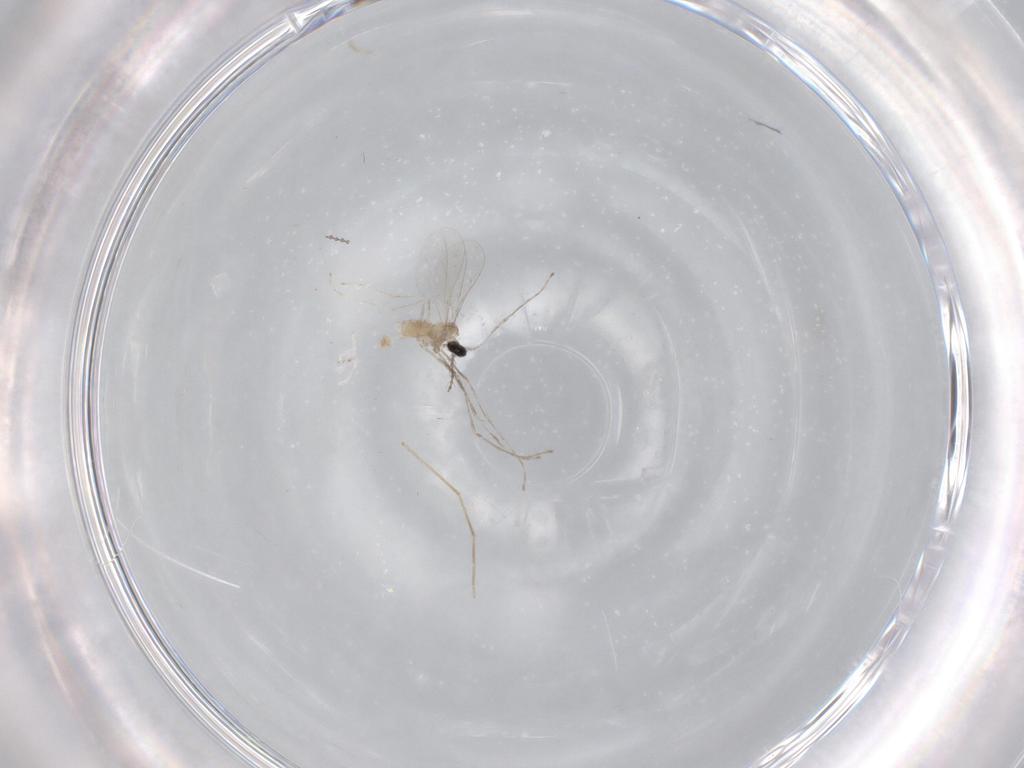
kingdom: Animalia
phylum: Arthropoda
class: Insecta
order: Diptera
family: Cecidomyiidae
